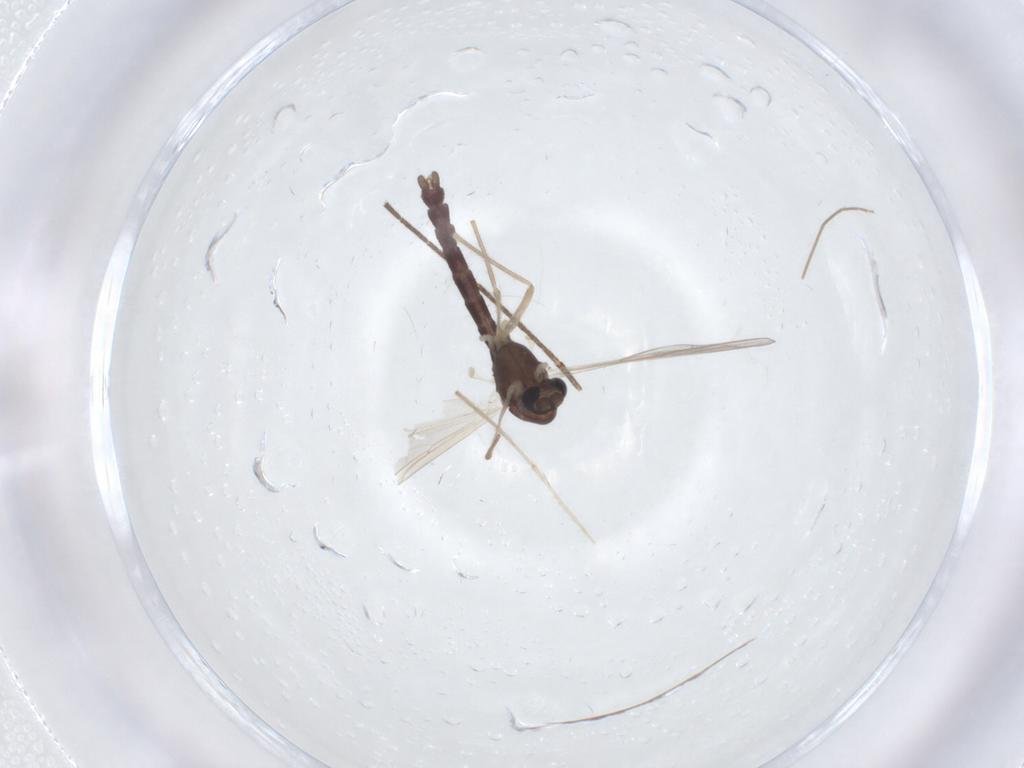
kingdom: Animalia
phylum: Arthropoda
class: Insecta
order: Diptera
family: Chironomidae
